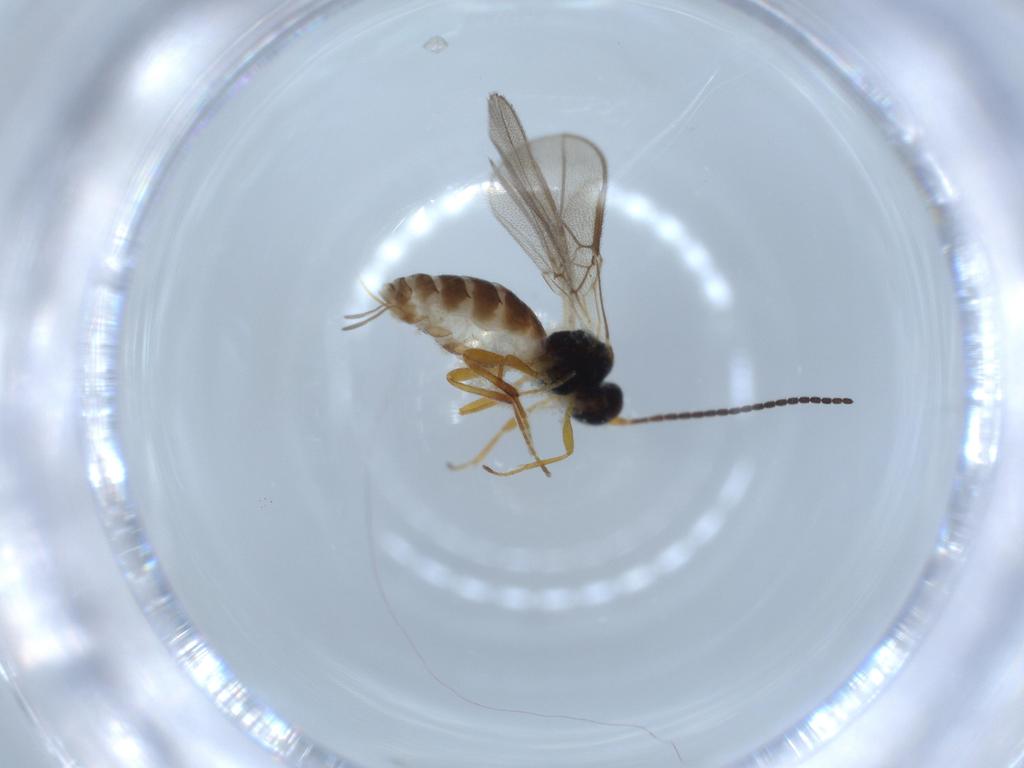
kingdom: Animalia
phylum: Arthropoda
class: Insecta
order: Hymenoptera
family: Braconidae
